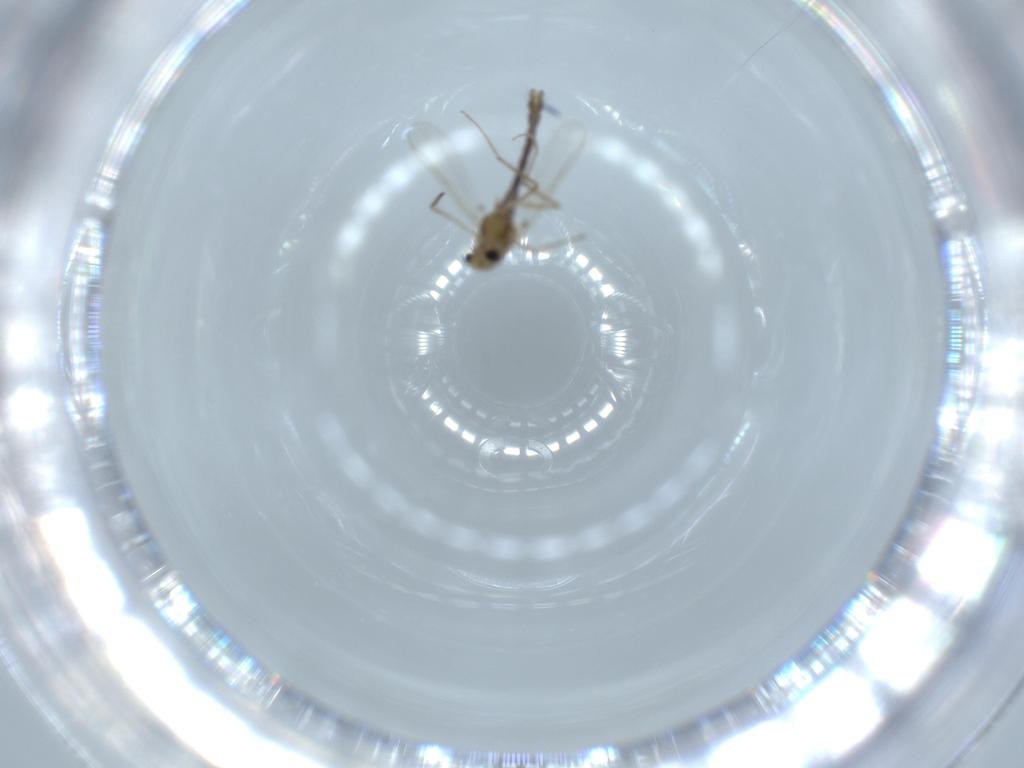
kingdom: Animalia
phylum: Arthropoda
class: Insecta
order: Diptera
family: Chironomidae
